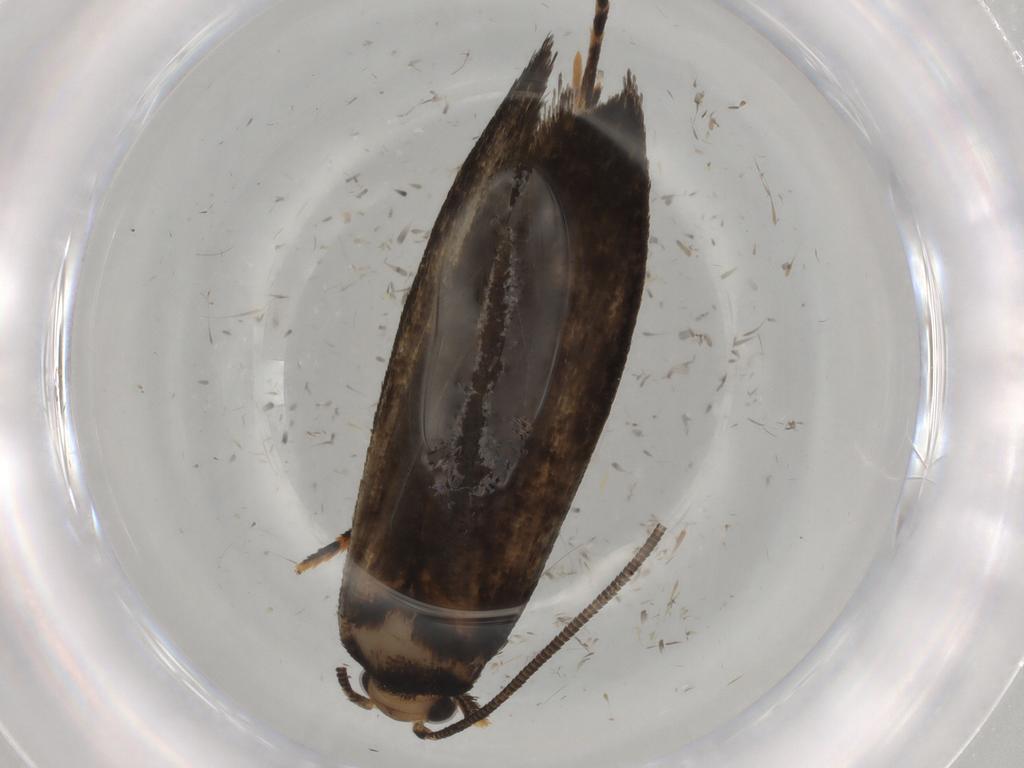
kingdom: Animalia
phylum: Arthropoda
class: Insecta
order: Lepidoptera
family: Tineidae
